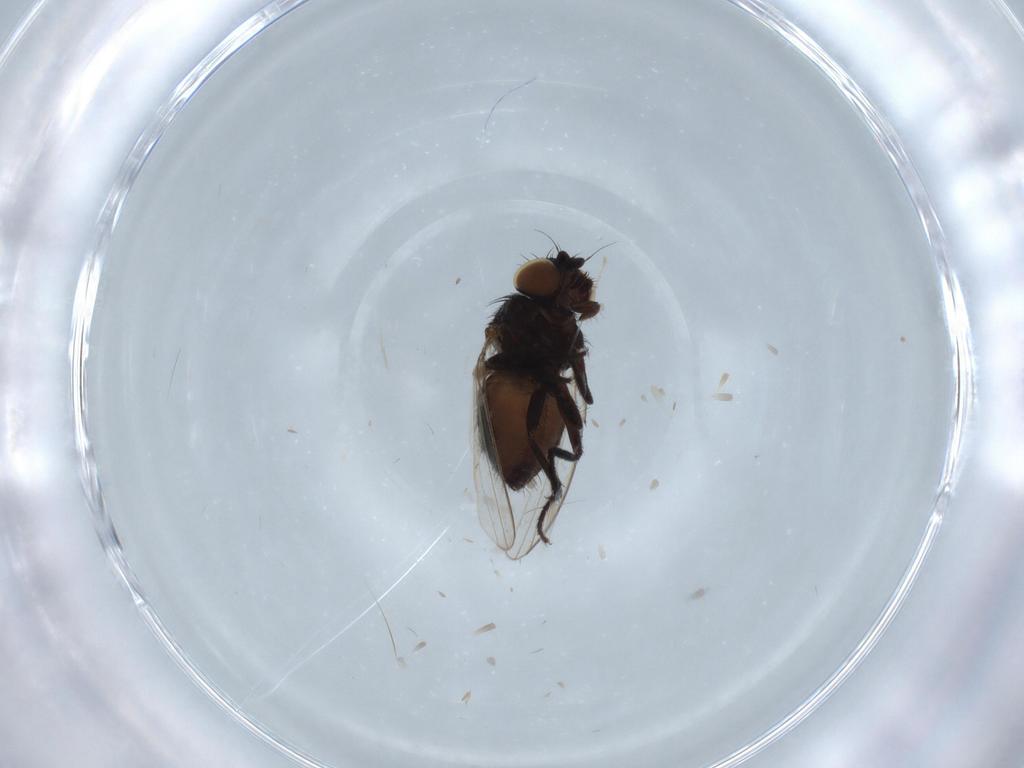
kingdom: Animalia
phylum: Arthropoda
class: Insecta
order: Diptera
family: Milichiidae
